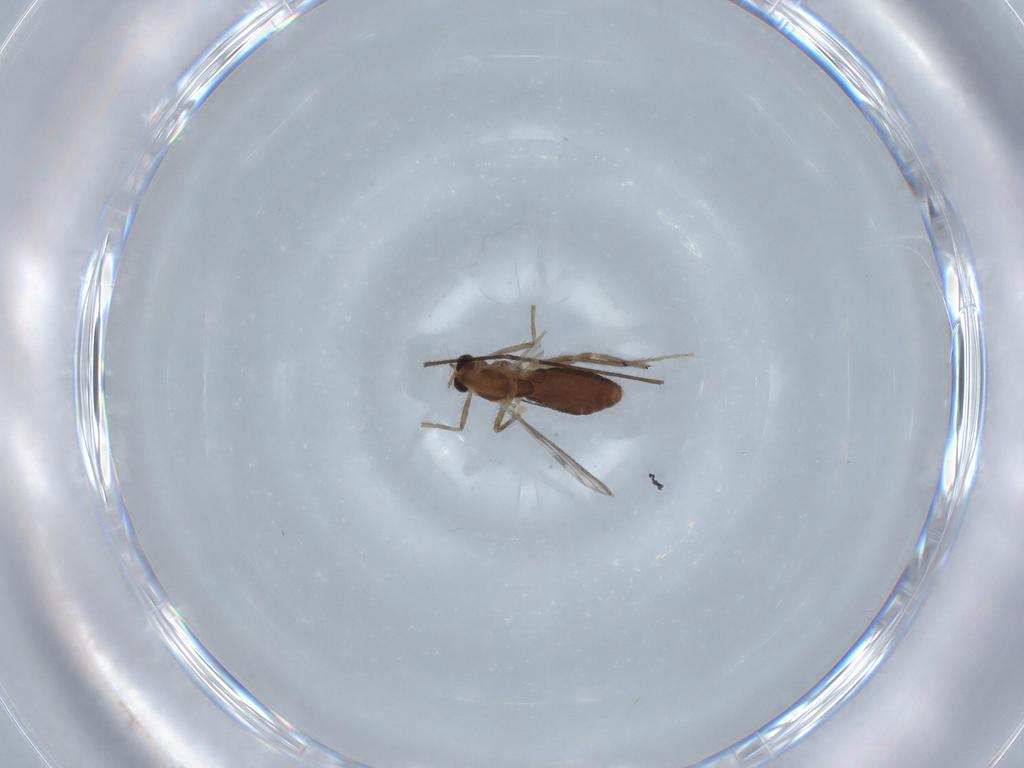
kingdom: Animalia
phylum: Arthropoda
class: Insecta
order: Diptera
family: Chironomidae
